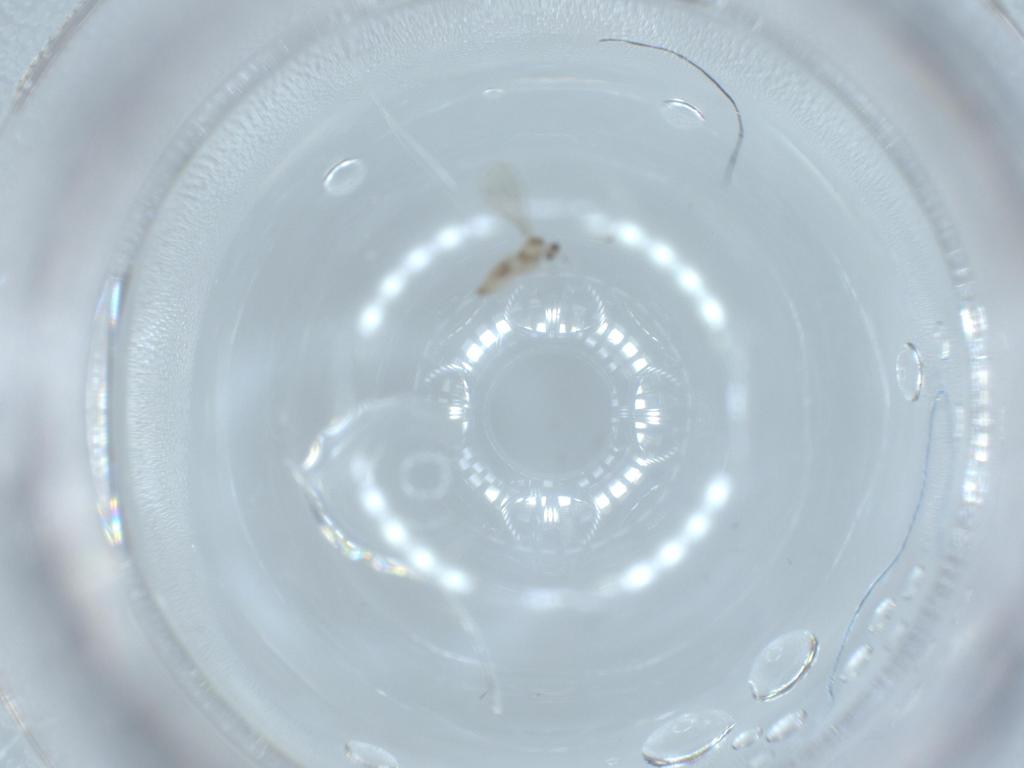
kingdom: Animalia
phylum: Arthropoda
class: Insecta
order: Diptera
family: Cecidomyiidae
